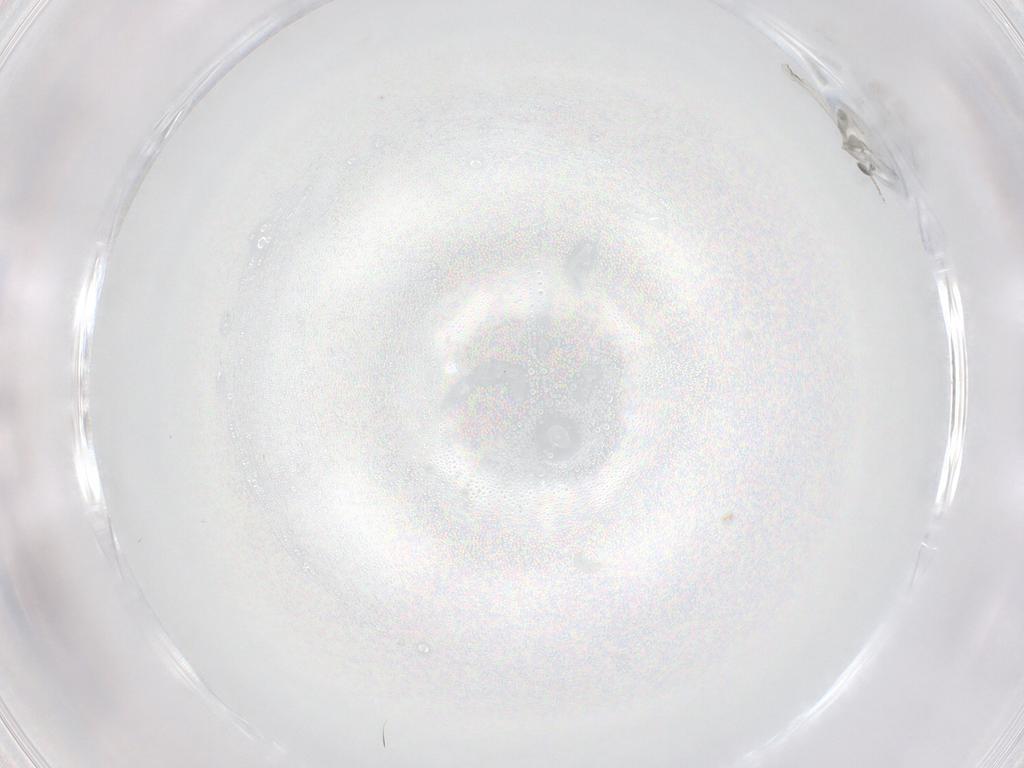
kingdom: Animalia
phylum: Arthropoda
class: Insecta
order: Diptera
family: Cecidomyiidae
